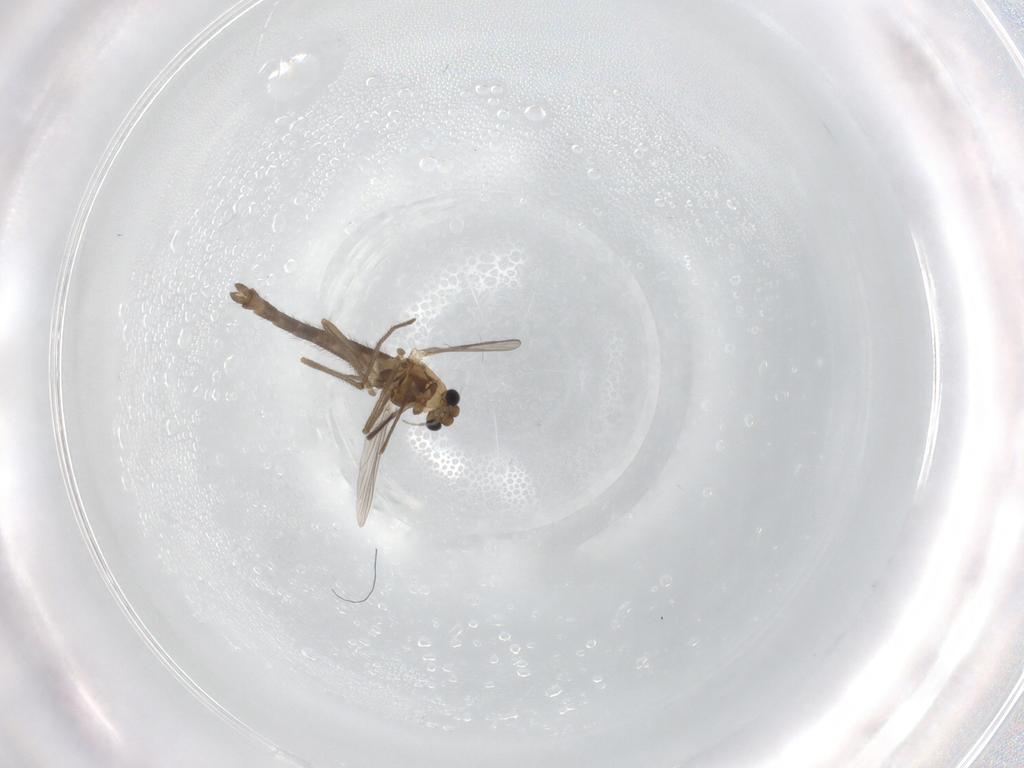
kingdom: Animalia
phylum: Arthropoda
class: Insecta
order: Diptera
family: Chironomidae
